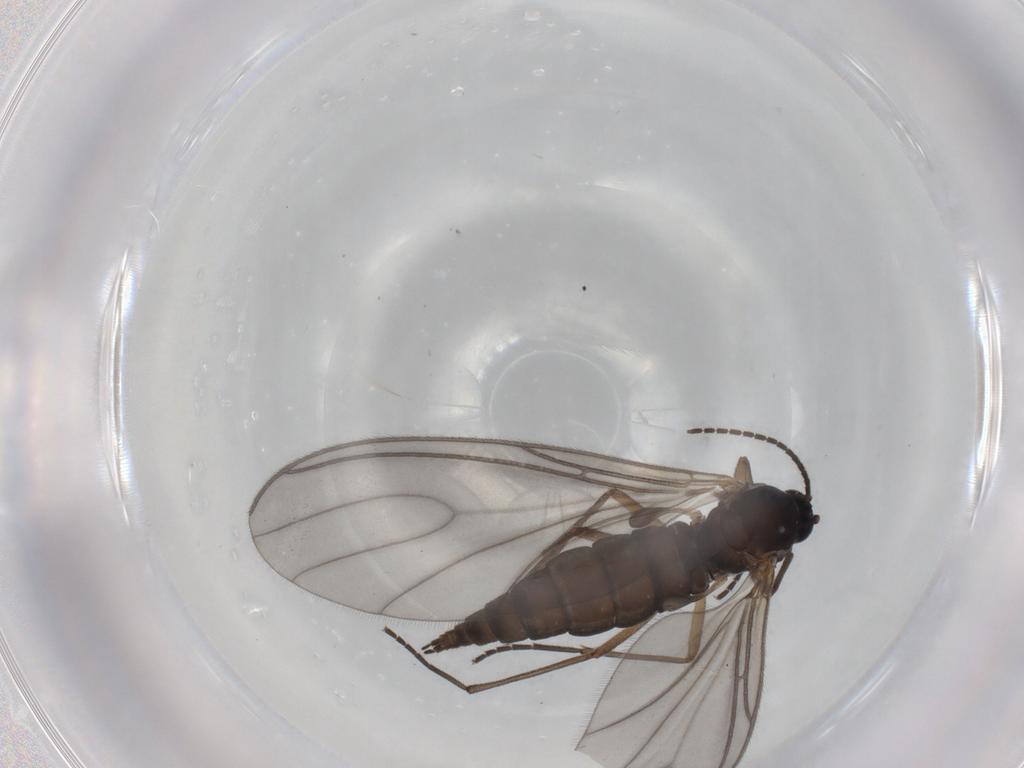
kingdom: Animalia
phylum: Arthropoda
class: Insecta
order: Diptera
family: Sciaridae
